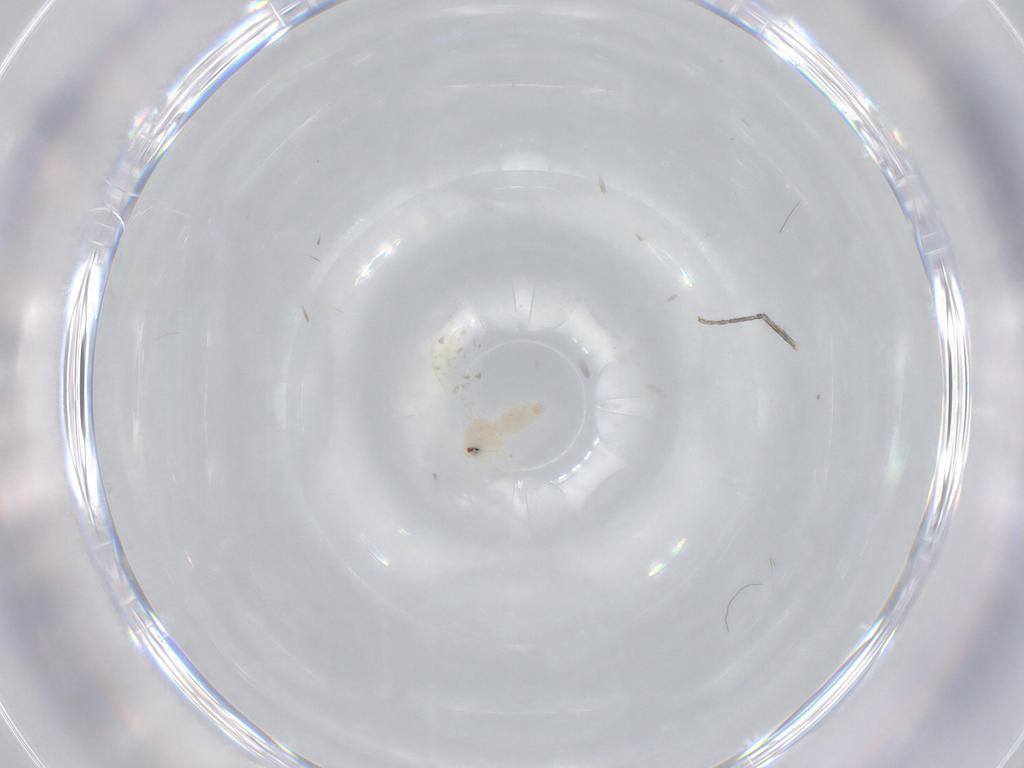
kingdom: Animalia
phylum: Arthropoda
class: Insecta
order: Hemiptera
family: Aleyrodidae
